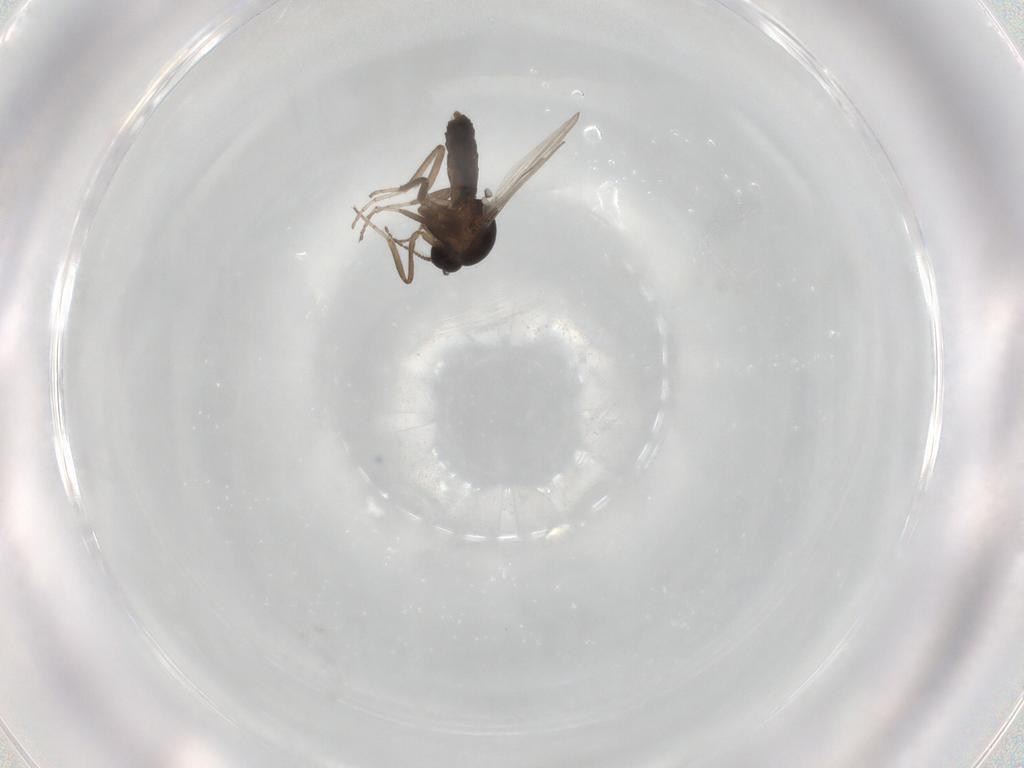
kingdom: Animalia
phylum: Arthropoda
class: Insecta
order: Diptera
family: Ceratopogonidae
